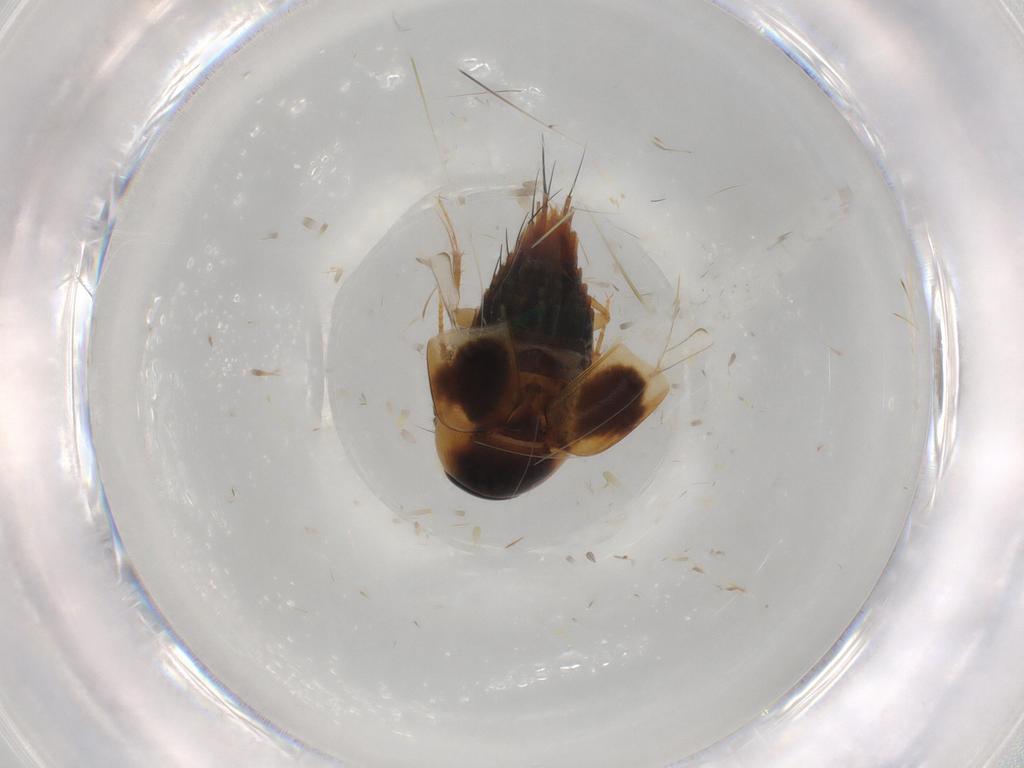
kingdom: Animalia
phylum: Arthropoda
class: Insecta
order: Coleoptera
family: Staphylinidae
